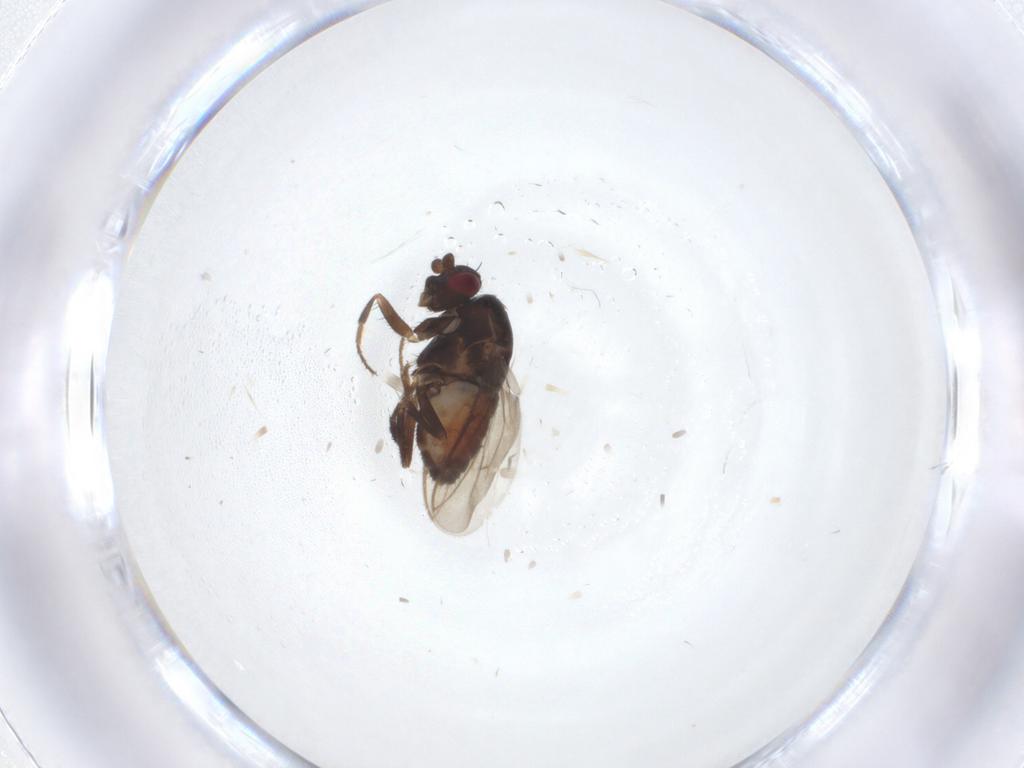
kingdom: Animalia
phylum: Arthropoda
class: Insecta
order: Diptera
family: Sphaeroceridae
